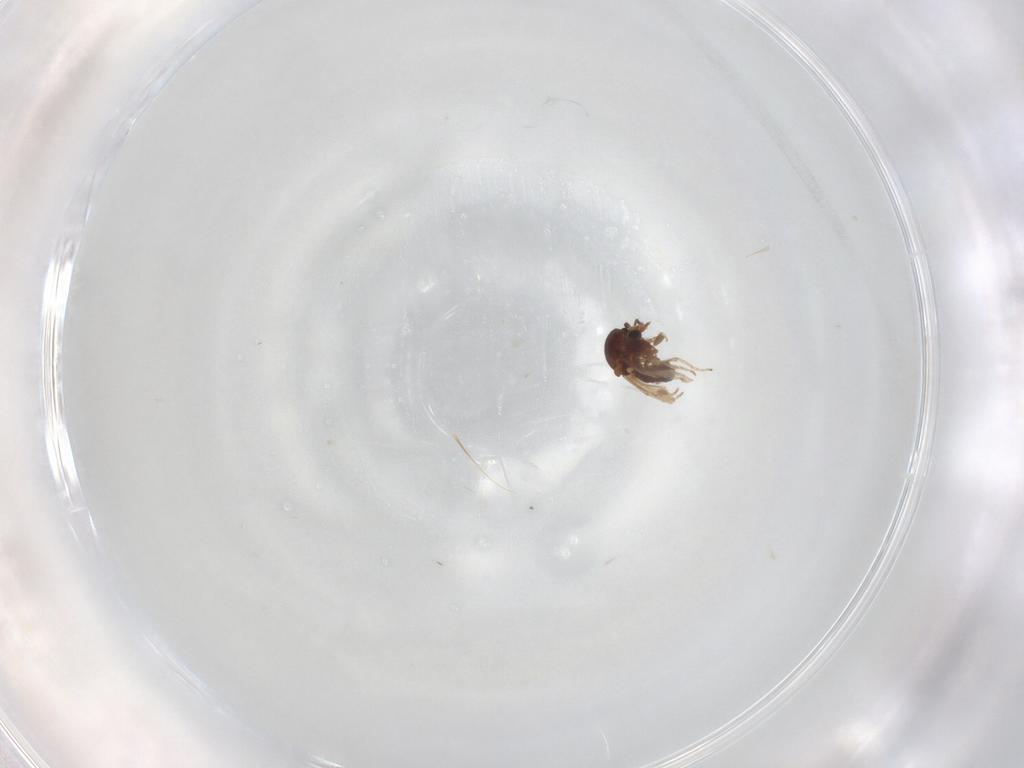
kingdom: Animalia
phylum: Arthropoda
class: Insecta
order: Diptera
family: Psychodidae
